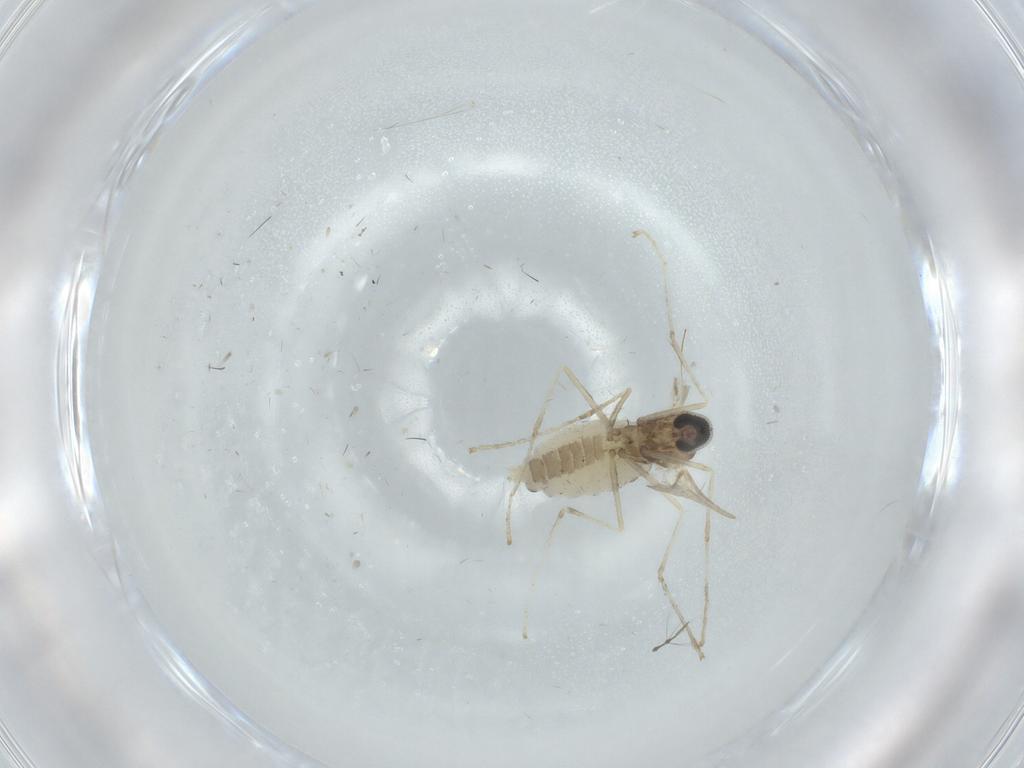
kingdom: Animalia
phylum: Arthropoda
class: Insecta
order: Diptera
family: Cecidomyiidae
